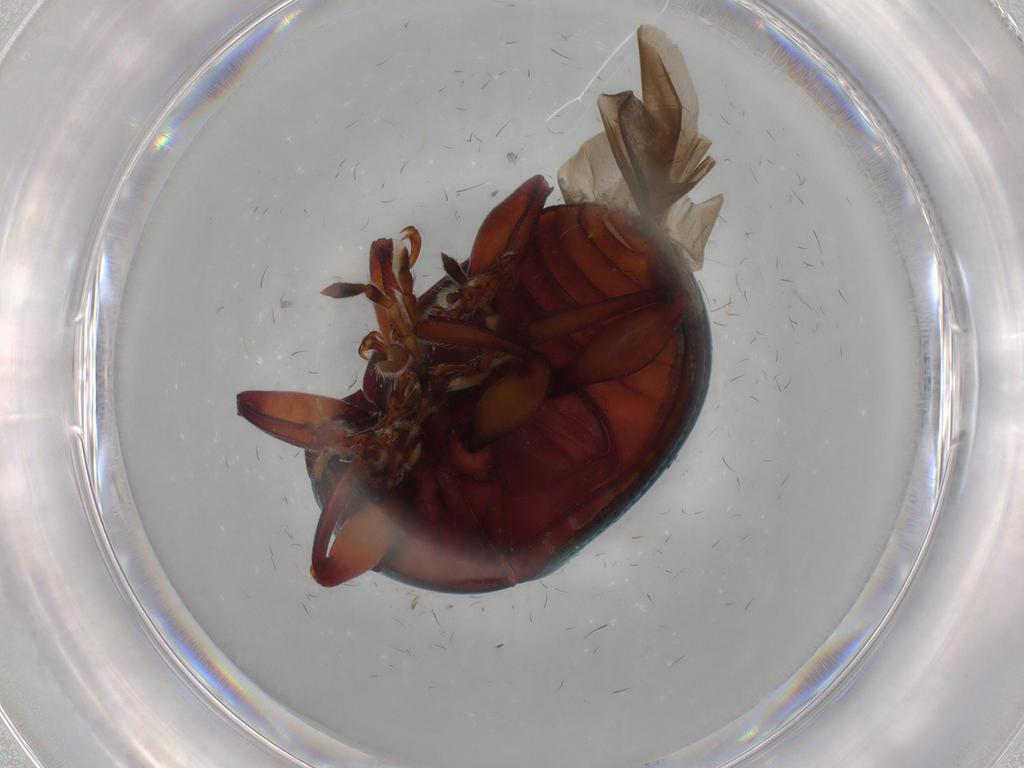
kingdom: Animalia
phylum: Arthropoda
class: Insecta
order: Coleoptera
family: Chrysomelidae
